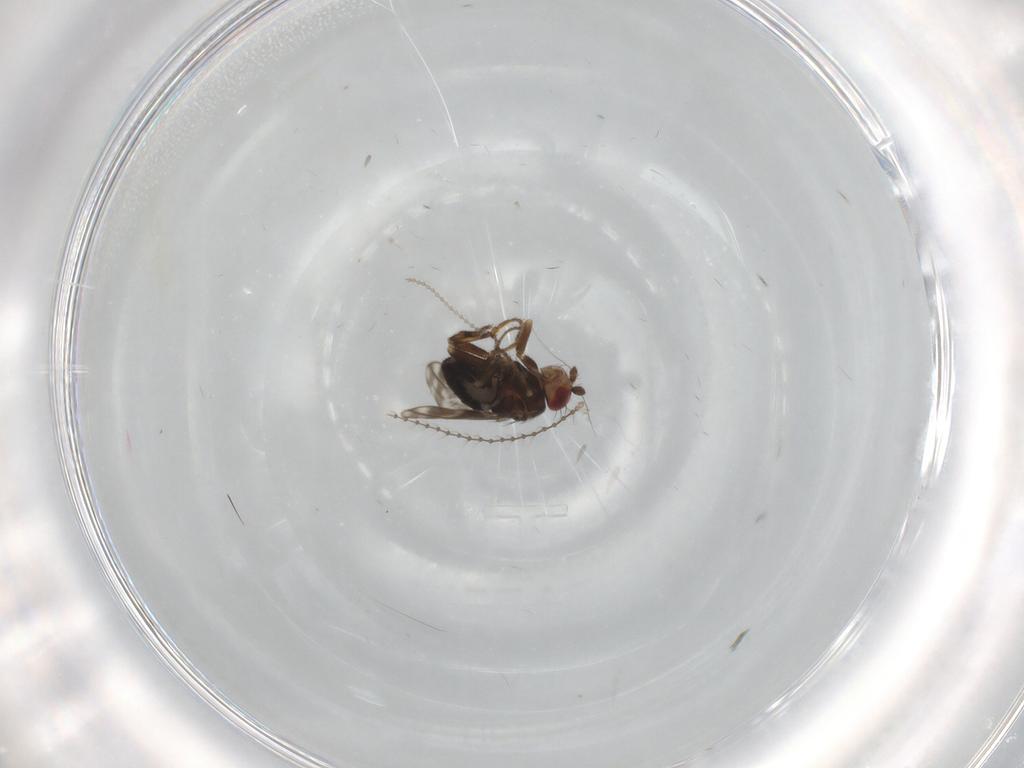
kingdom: Animalia
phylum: Arthropoda
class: Insecta
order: Diptera
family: Sphaeroceridae
